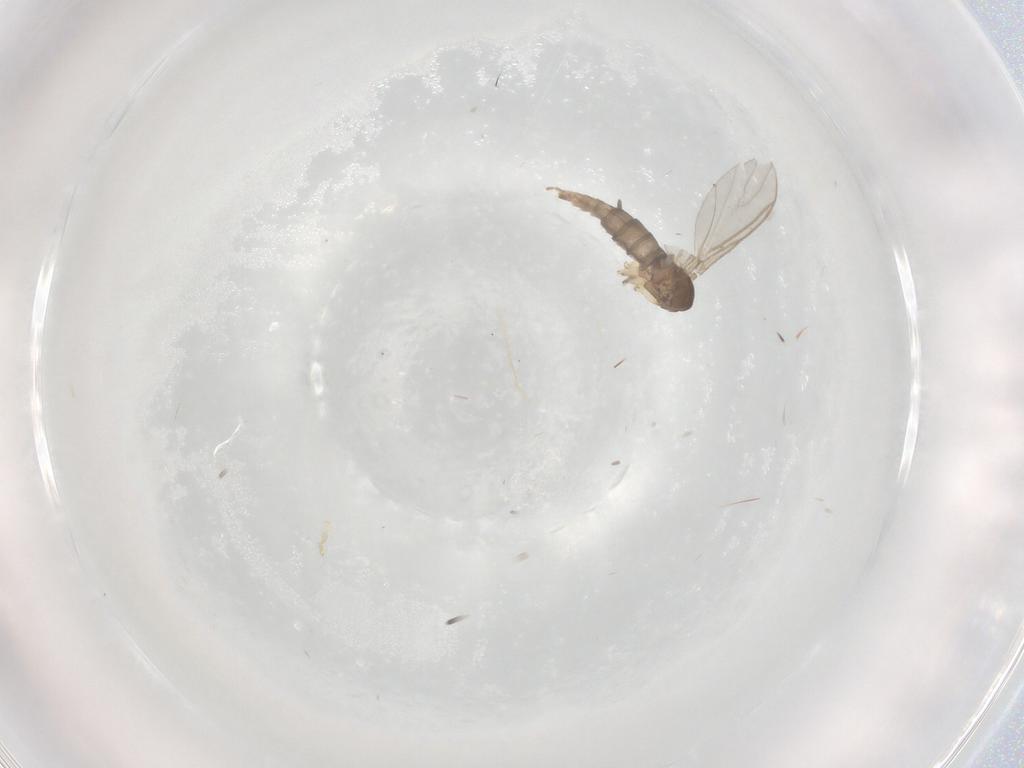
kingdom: Animalia
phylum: Arthropoda
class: Insecta
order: Diptera
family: Sciaridae
